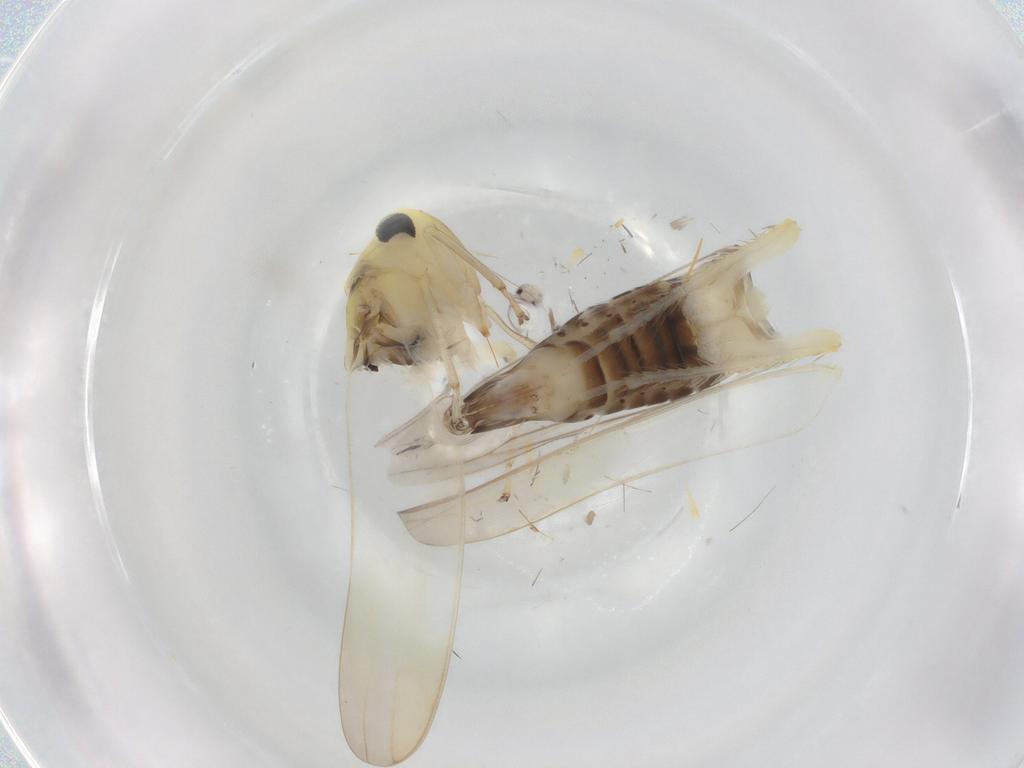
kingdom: Animalia
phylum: Arthropoda
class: Insecta
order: Hemiptera
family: Cicadellidae
